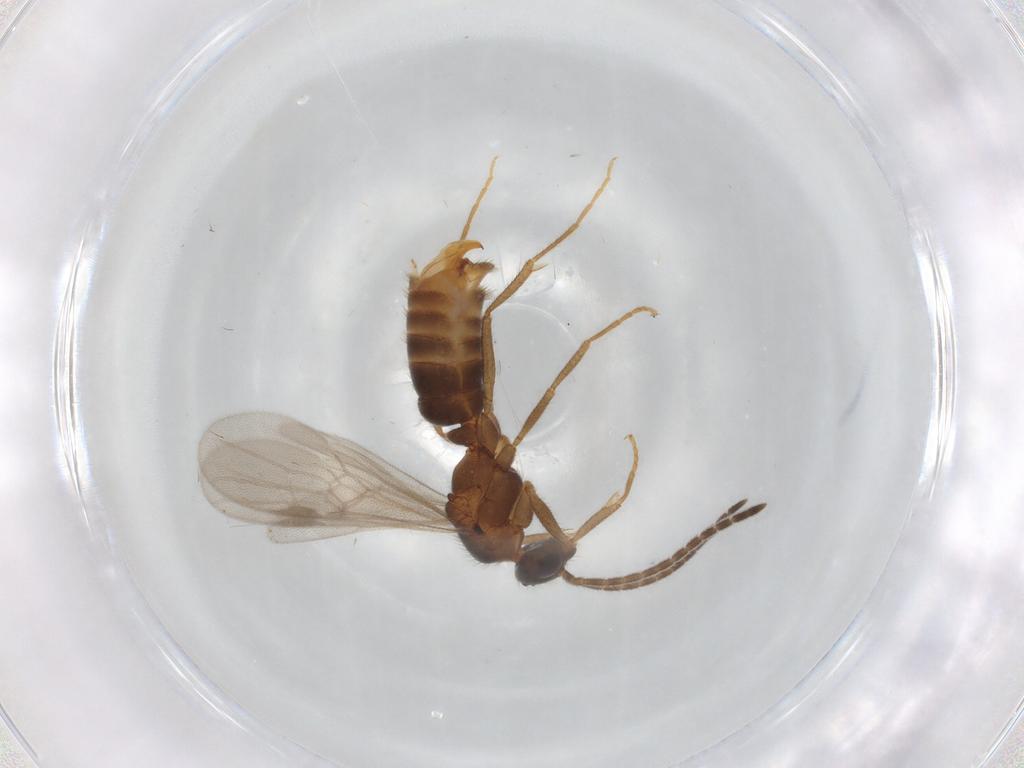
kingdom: Animalia
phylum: Arthropoda
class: Insecta
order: Hymenoptera
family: Formicidae
